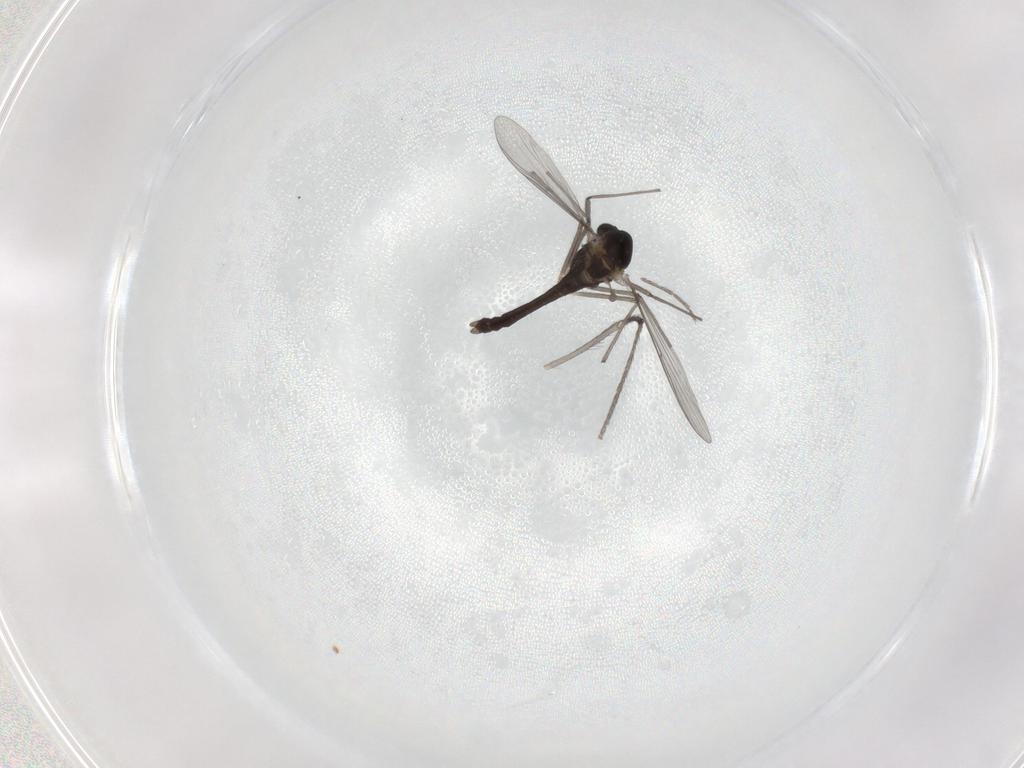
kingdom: Animalia
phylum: Arthropoda
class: Insecta
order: Diptera
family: Chironomidae
